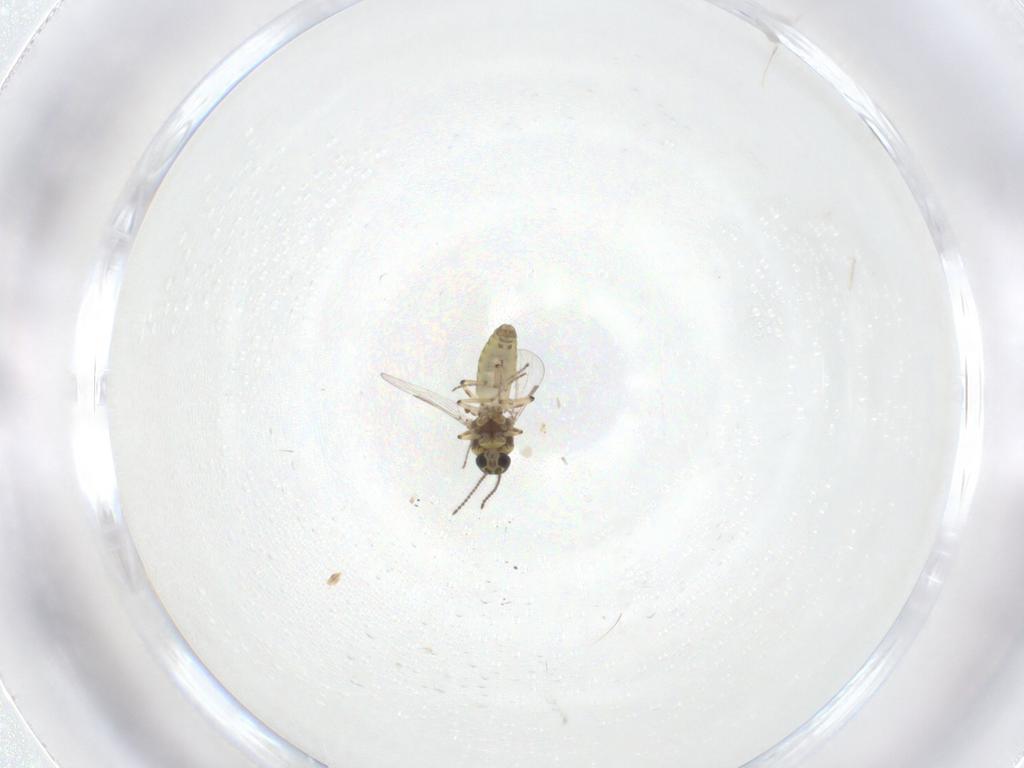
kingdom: Animalia
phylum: Arthropoda
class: Insecta
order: Diptera
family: Ceratopogonidae
